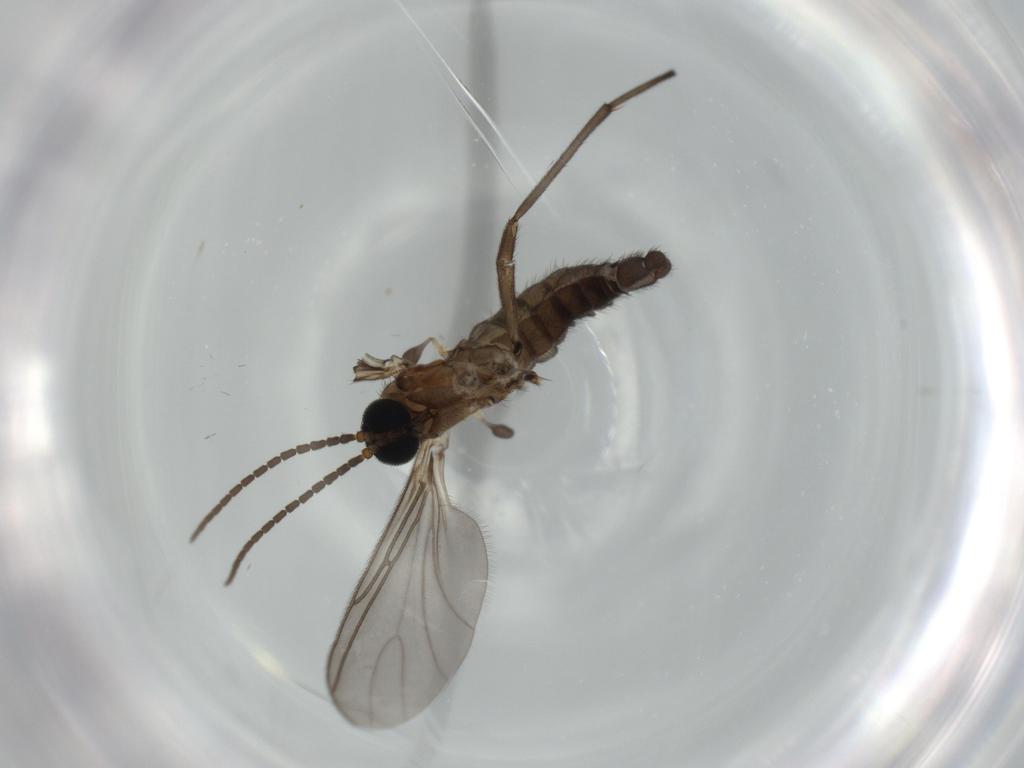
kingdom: Animalia
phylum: Arthropoda
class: Insecta
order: Diptera
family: Sciaridae
